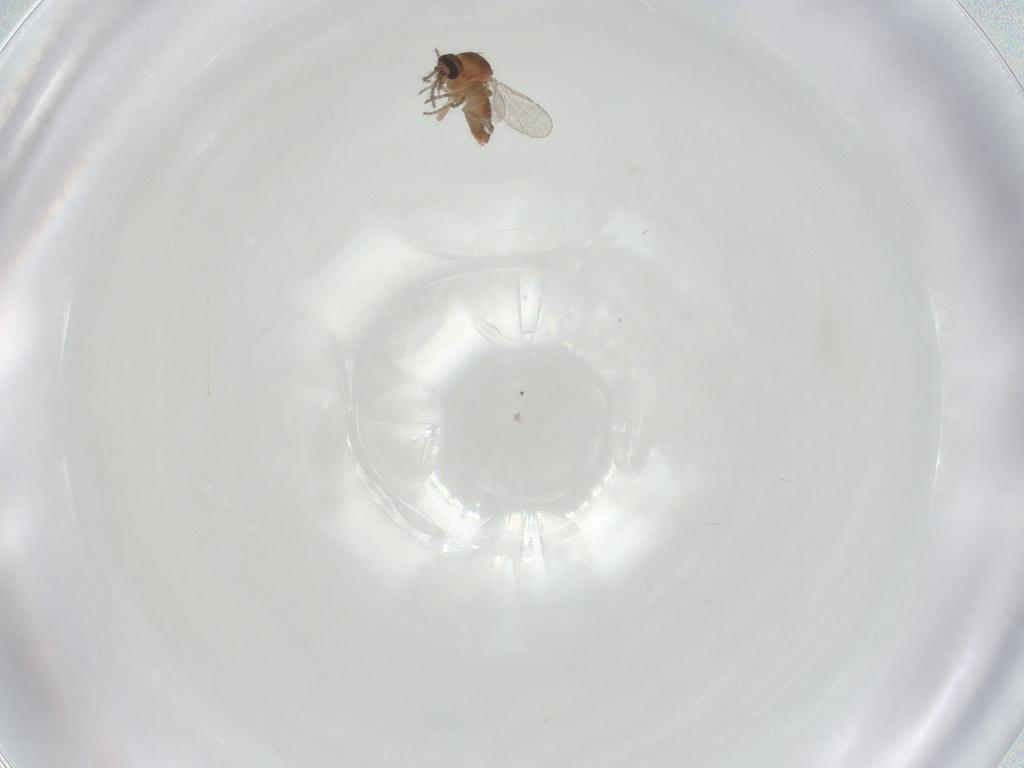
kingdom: Animalia
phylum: Arthropoda
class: Insecta
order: Diptera
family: Ceratopogonidae
